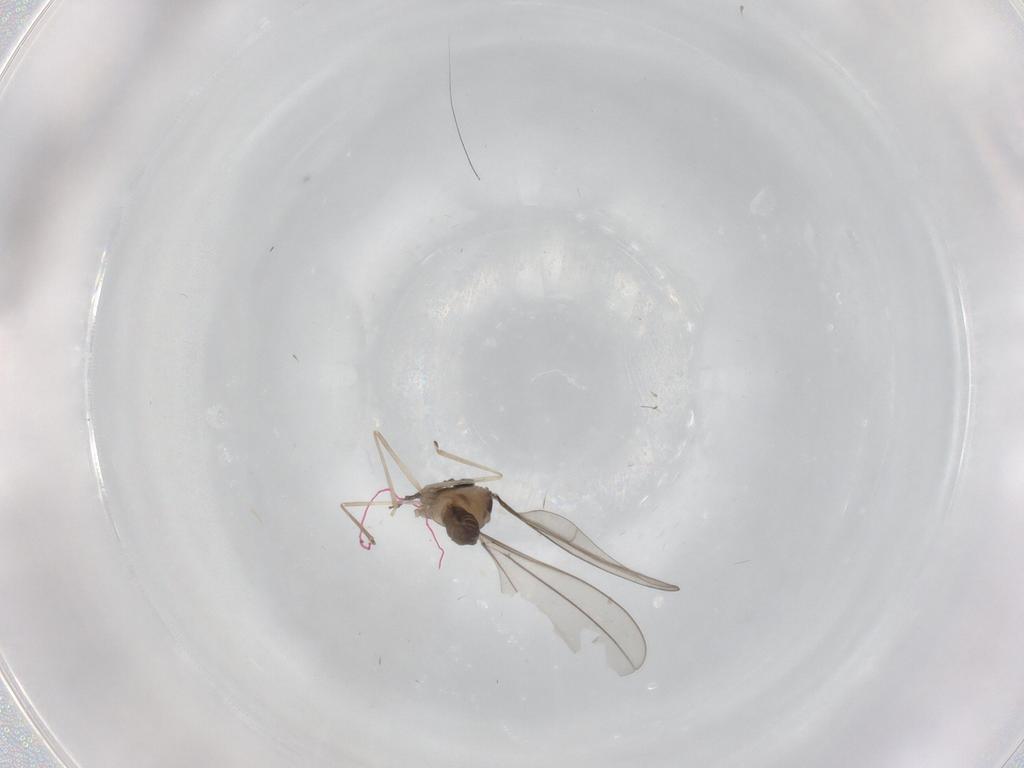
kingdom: Animalia
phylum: Arthropoda
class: Insecta
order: Diptera
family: Cecidomyiidae
